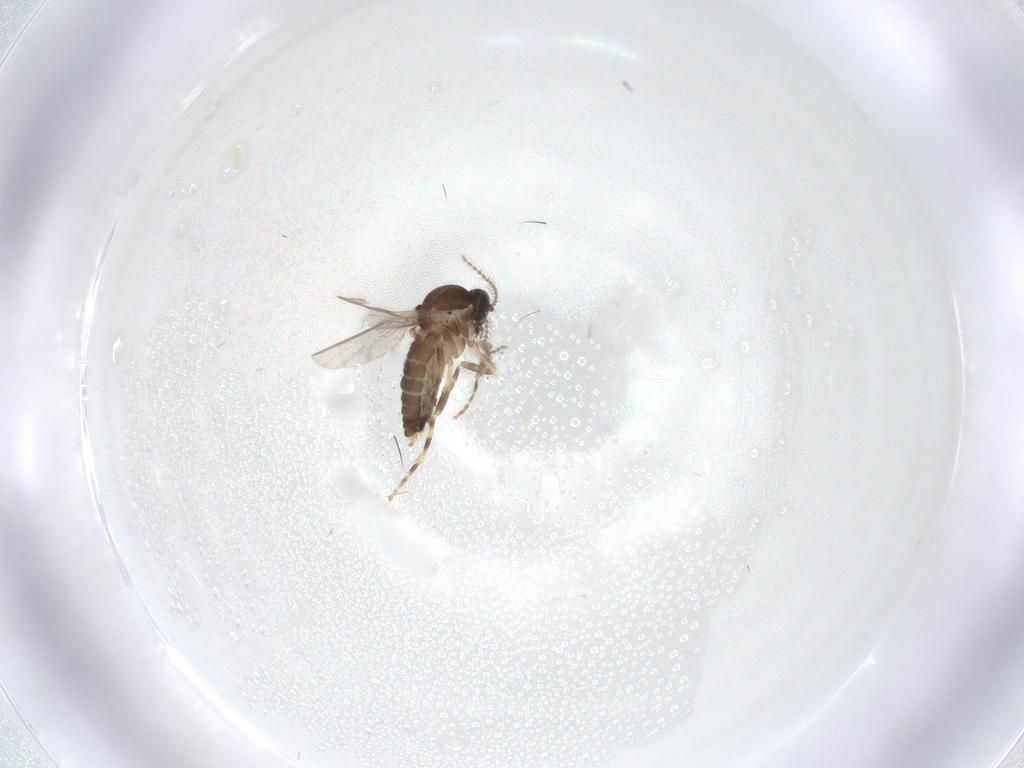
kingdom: Animalia
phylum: Arthropoda
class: Insecta
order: Diptera
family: Ceratopogonidae
